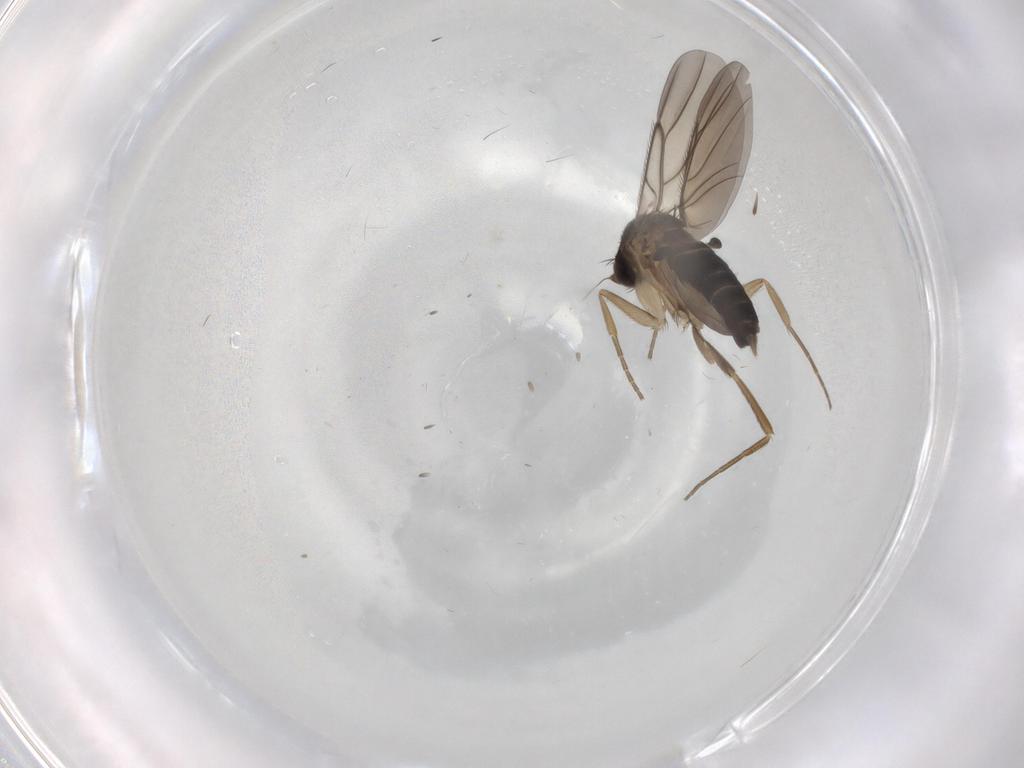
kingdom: Animalia
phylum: Arthropoda
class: Insecta
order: Diptera
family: Phoridae
